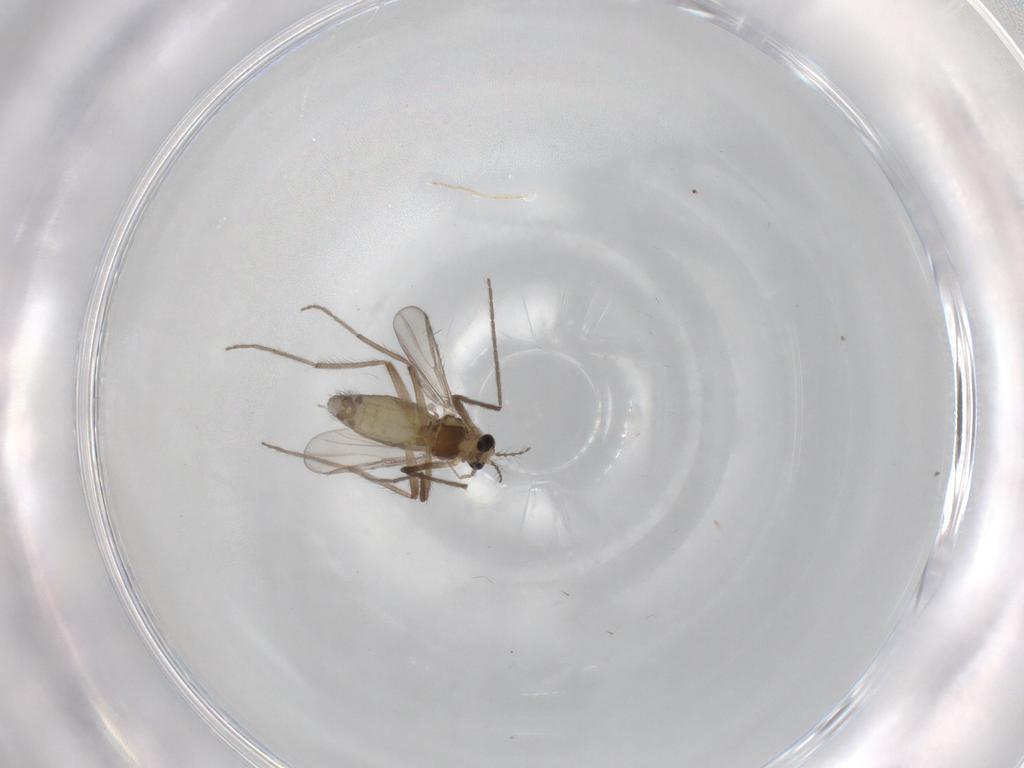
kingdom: Animalia
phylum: Arthropoda
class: Insecta
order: Diptera
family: Chironomidae
